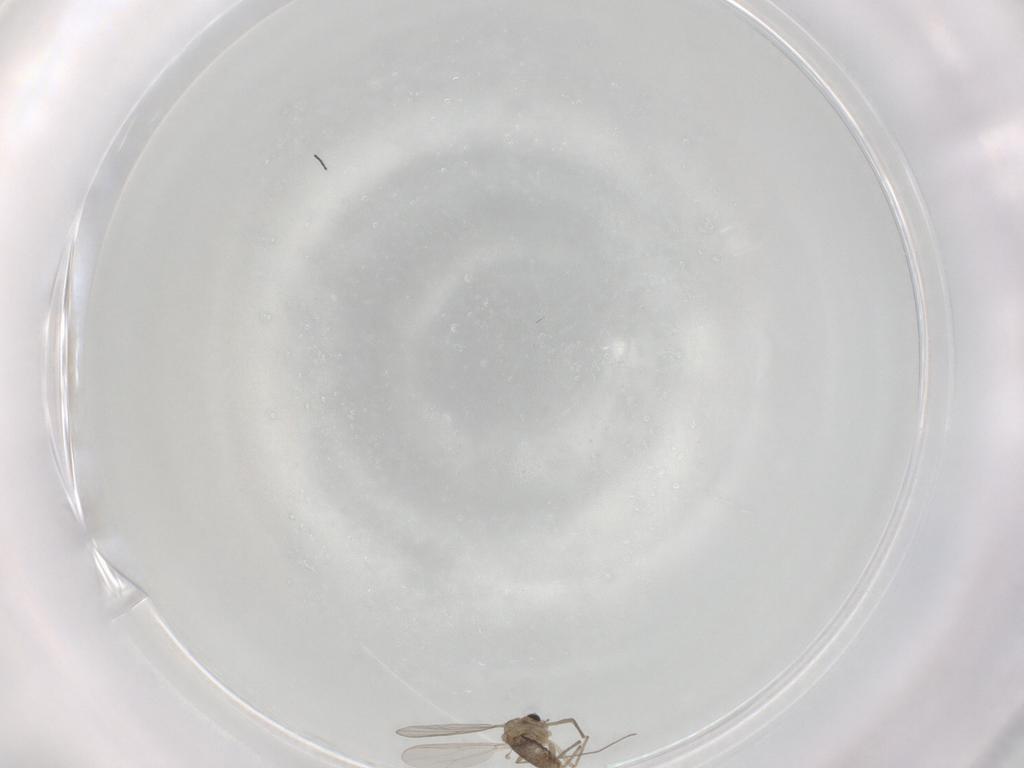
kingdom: Animalia
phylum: Arthropoda
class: Insecta
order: Diptera
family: Chironomidae
